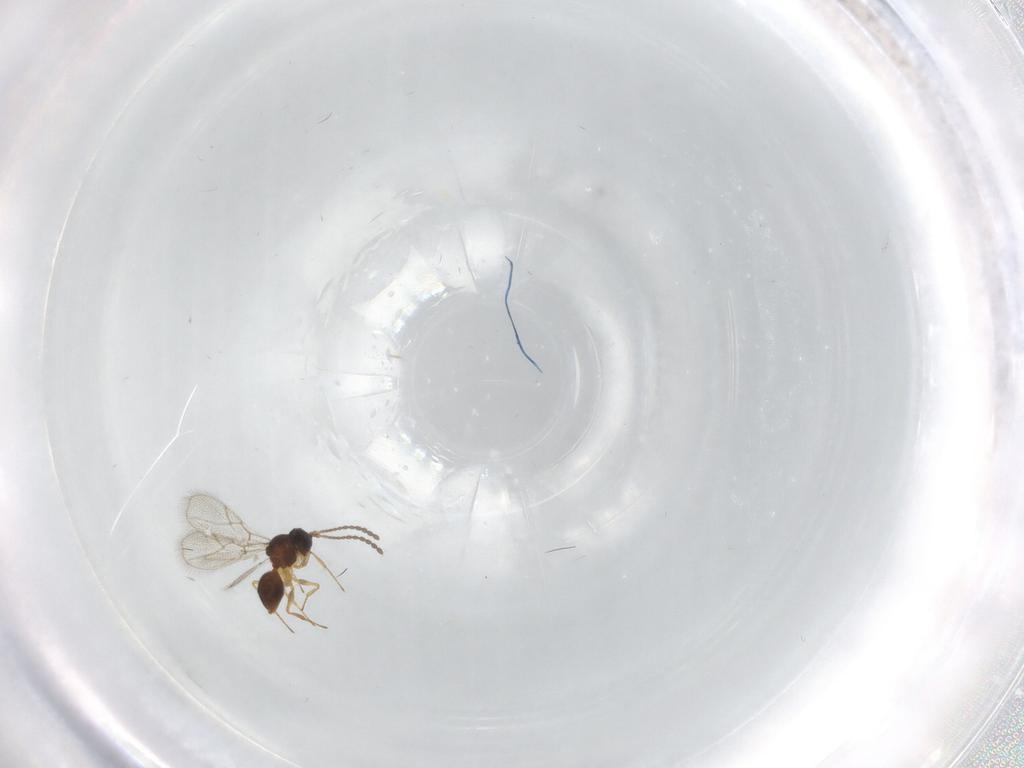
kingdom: Animalia
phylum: Arthropoda
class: Insecta
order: Hymenoptera
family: Figitidae
